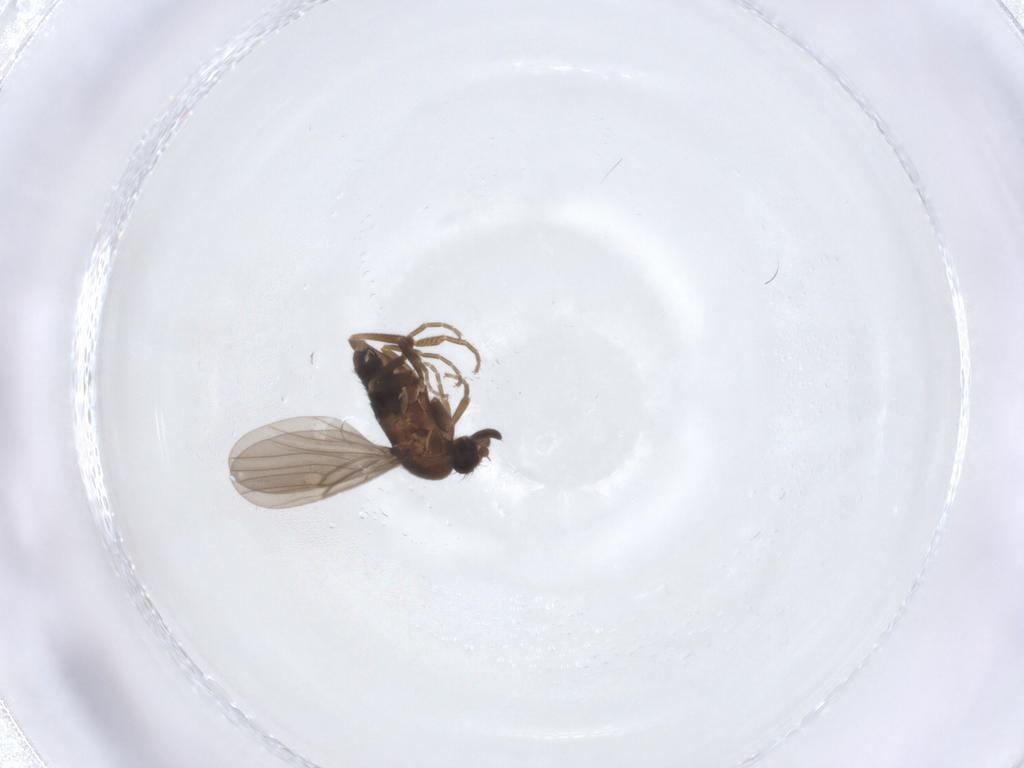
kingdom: Animalia
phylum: Arthropoda
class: Insecta
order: Diptera
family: Phoridae
